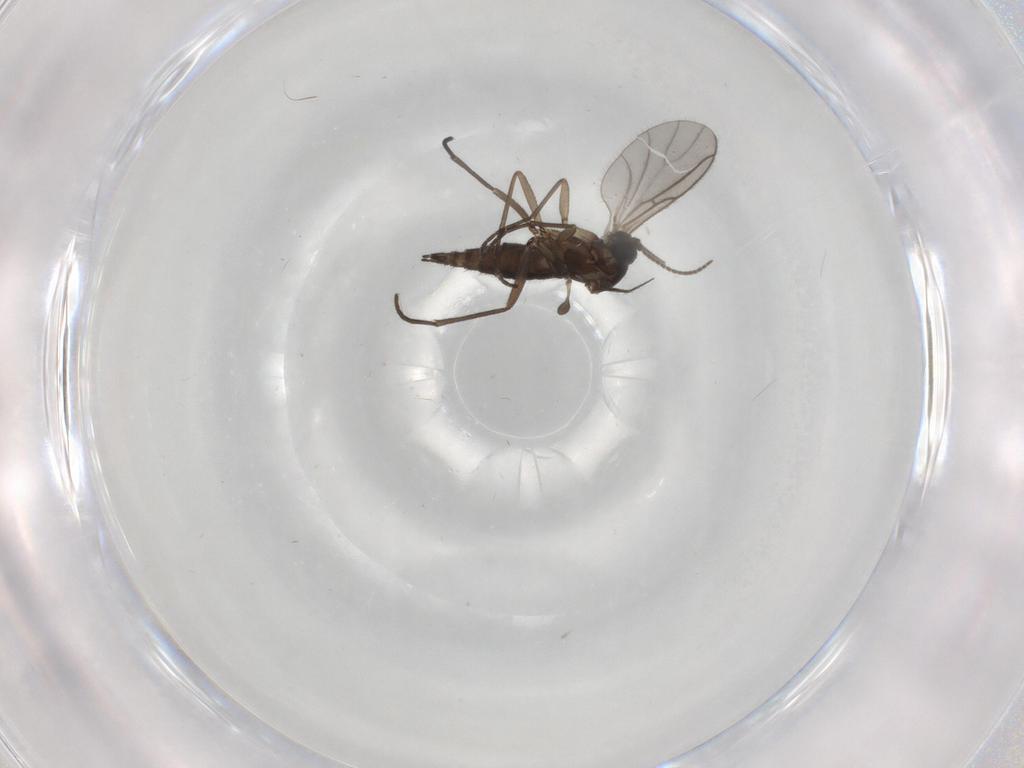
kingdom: Animalia
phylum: Arthropoda
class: Insecta
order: Diptera
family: Sciaridae
